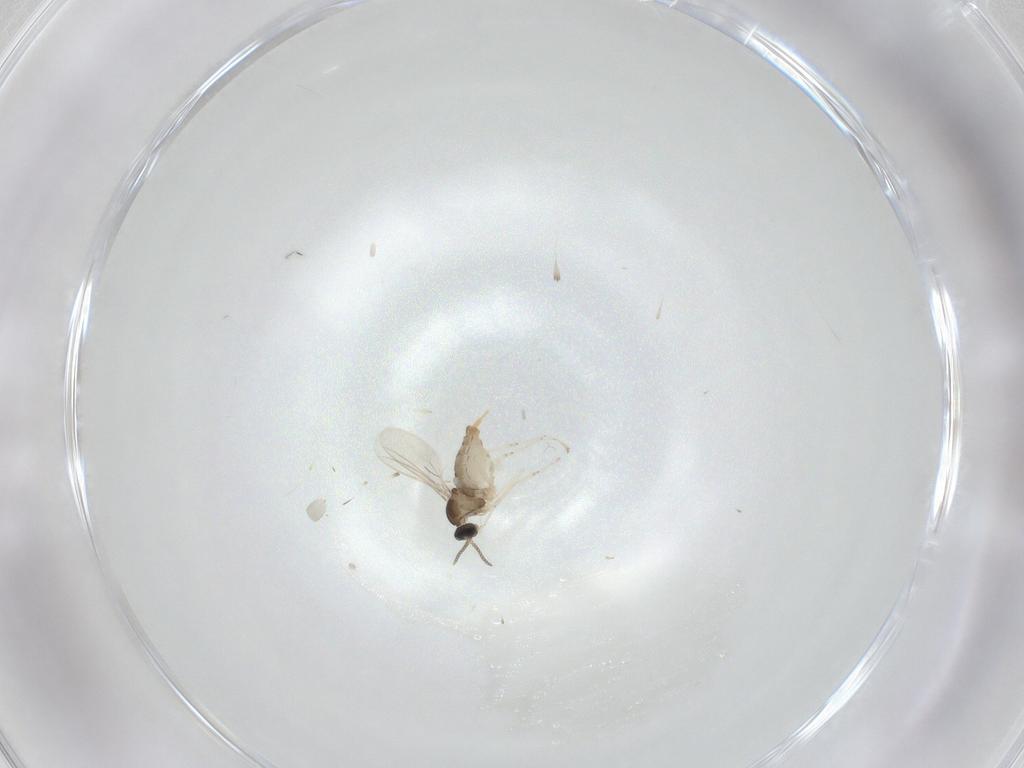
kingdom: Animalia
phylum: Arthropoda
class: Insecta
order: Diptera
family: Cecidomyiidae
